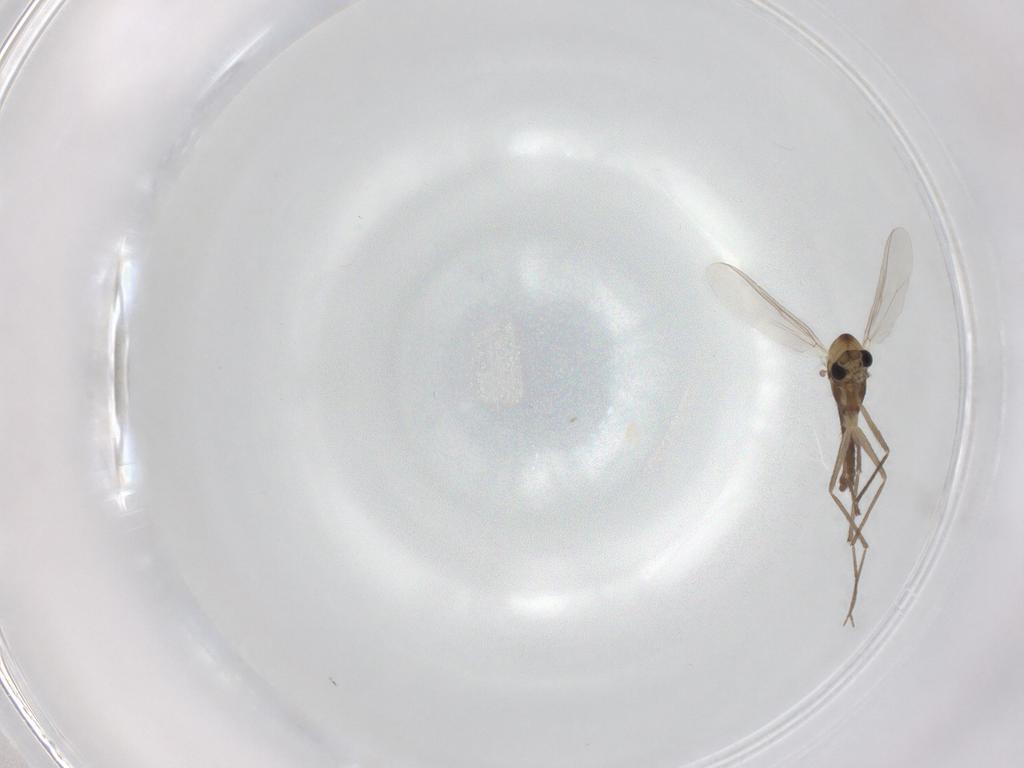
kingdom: Animalia
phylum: Arthropoda
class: Insecta
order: Diptera
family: Chironomidae
